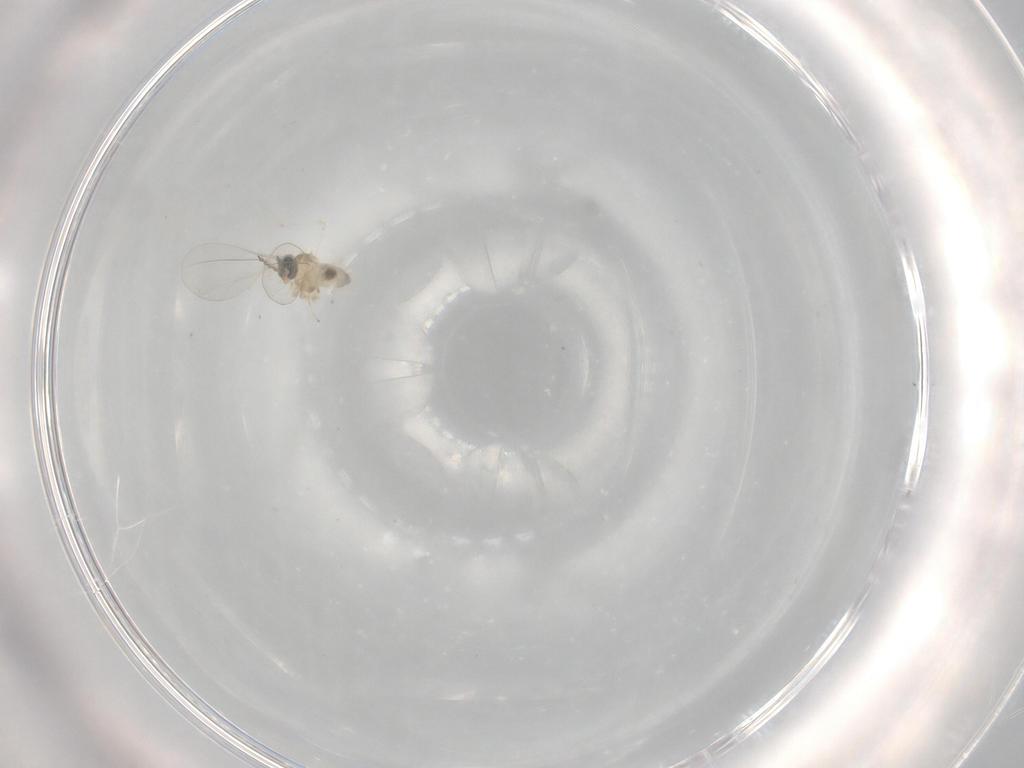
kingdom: Animalia
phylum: Arthropoda
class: Insecta
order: Diptera
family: Cecidomyiidae
